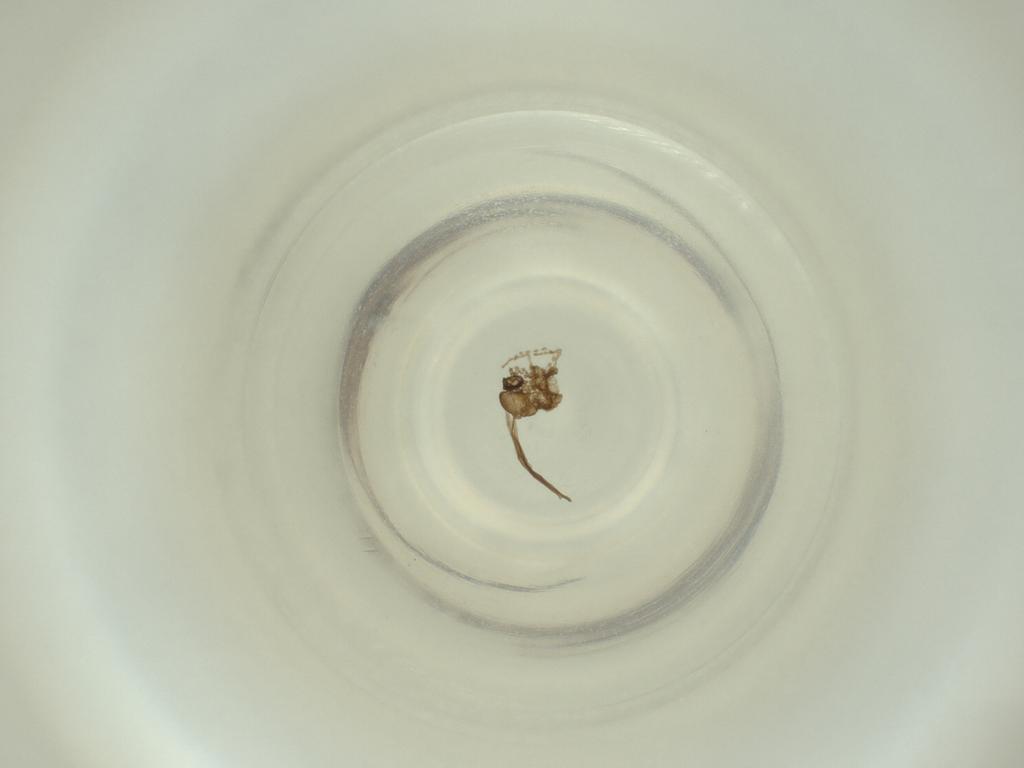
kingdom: Animalia
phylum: Arthropoda
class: Insecta
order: Diptera
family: Cecidomyiidae
